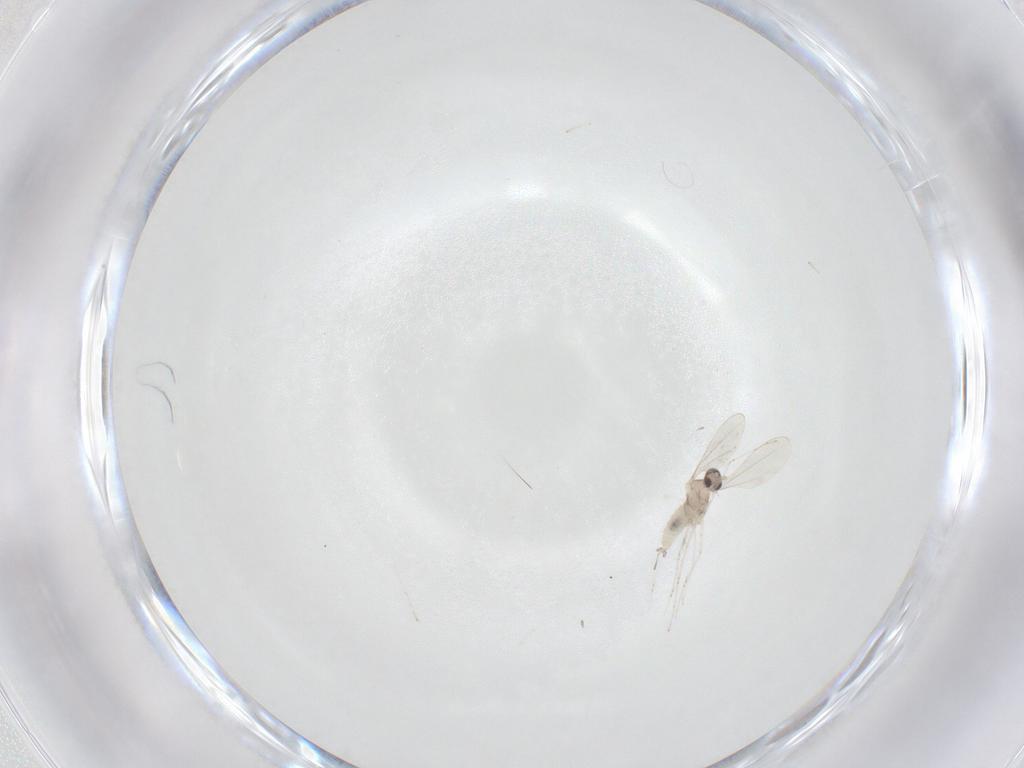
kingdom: Animalia
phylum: Arthropoda
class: Insecta
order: Diptera
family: Cecidomyiidae
